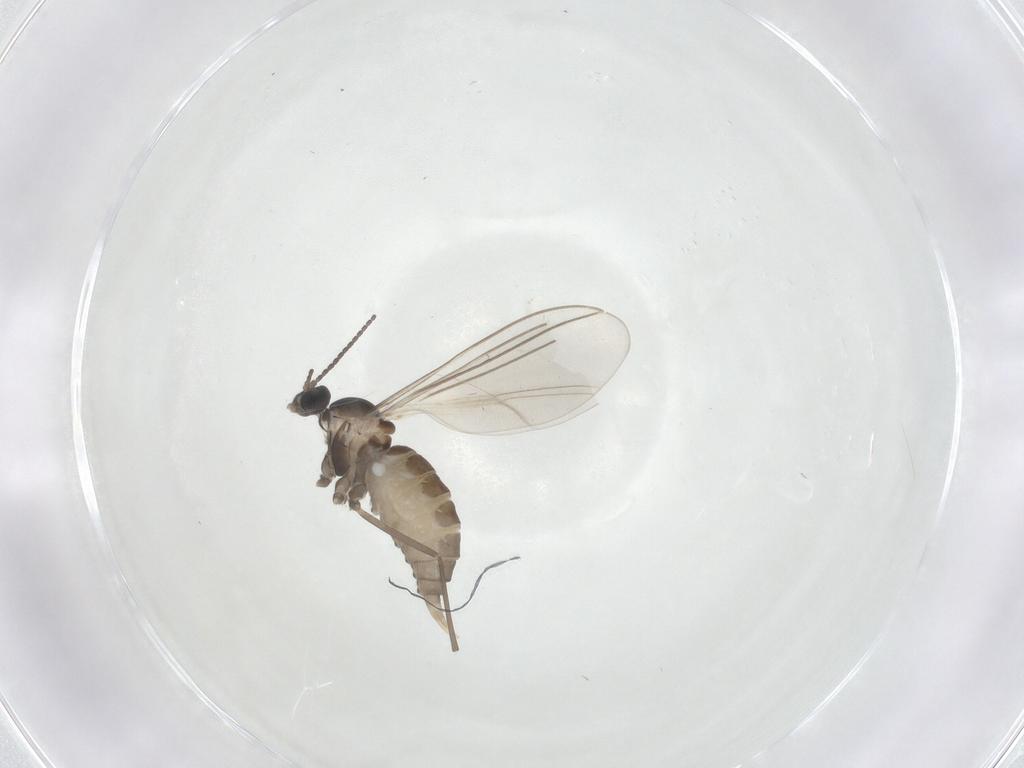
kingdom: Animalia
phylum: Arthropoda
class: Insecta
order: Diptera
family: Cecidomyiidae
